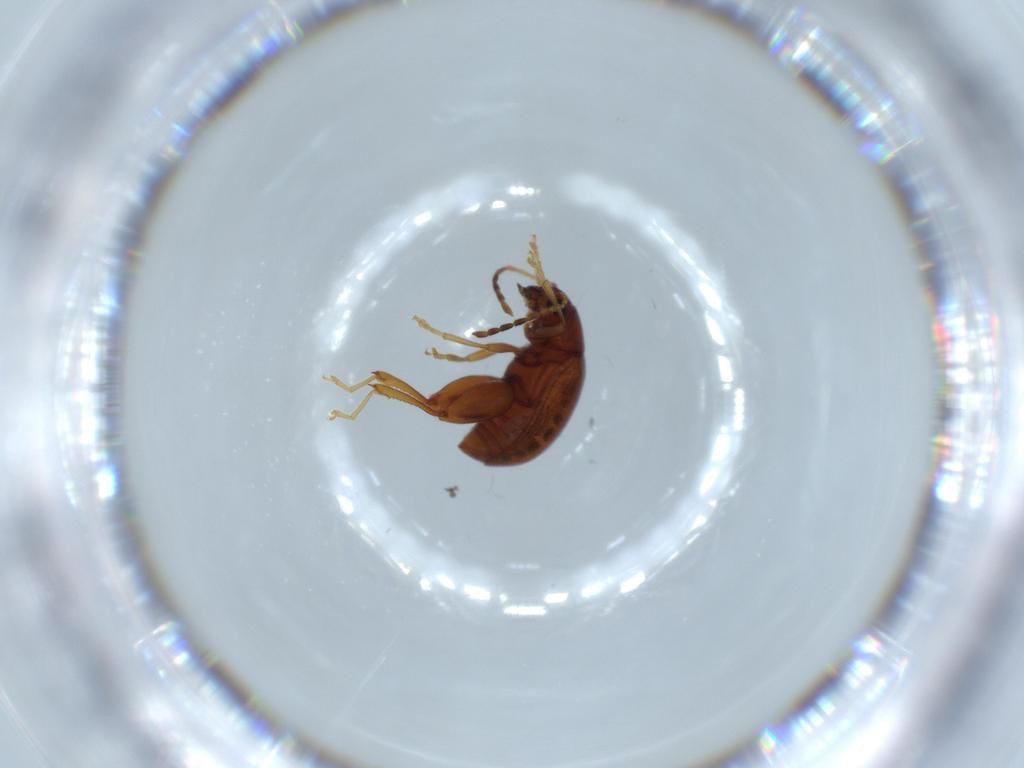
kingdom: Animalia
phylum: Arthropoda
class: Insecta
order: Coleoptera
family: Chrysomelidae
